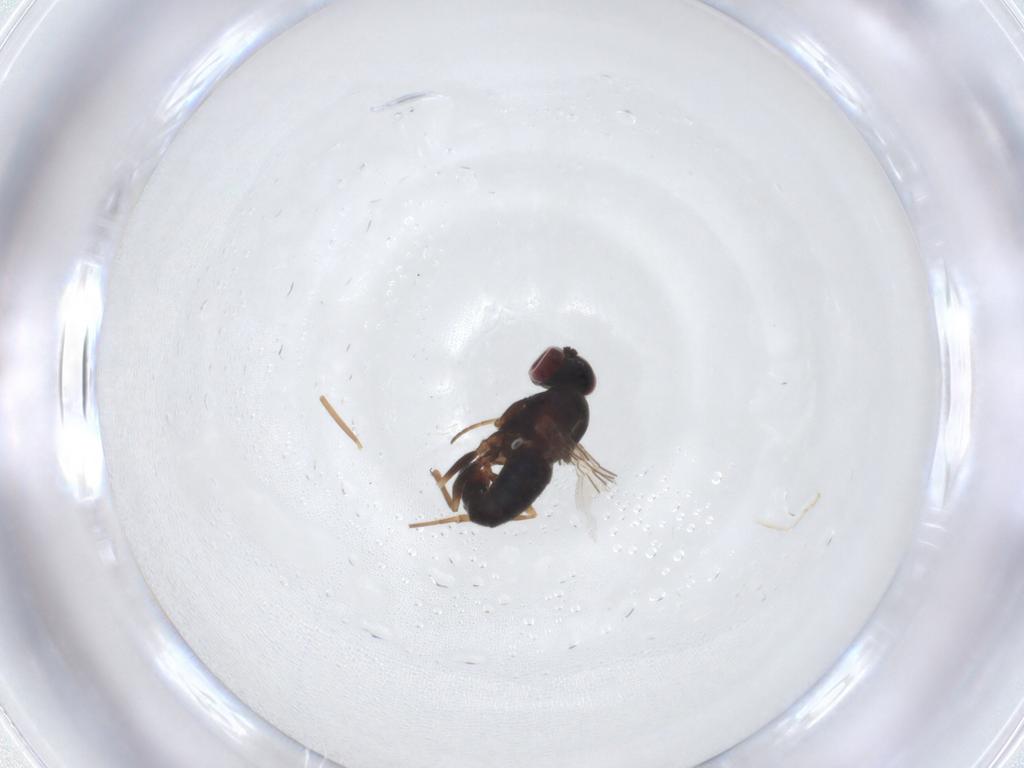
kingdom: Animalia
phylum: Arthropoda
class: Insecta
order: Diptera
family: Dolichopodidae
